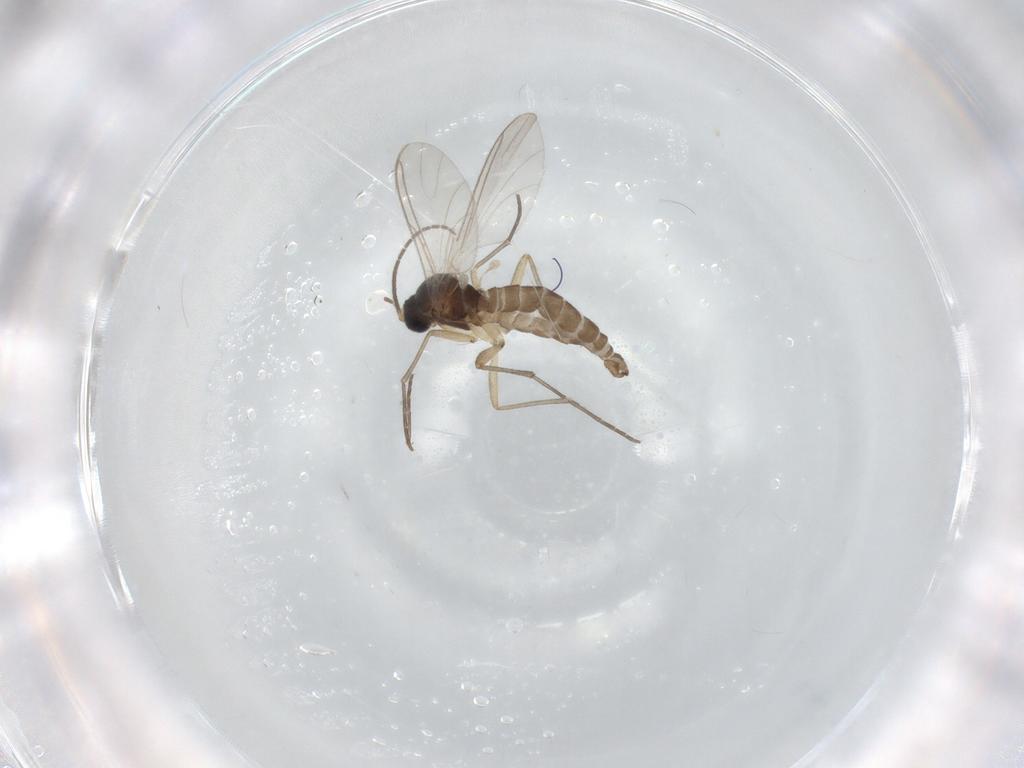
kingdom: Animalia
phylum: Arthropoda
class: Insecta
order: Diptera
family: Sciaridae
